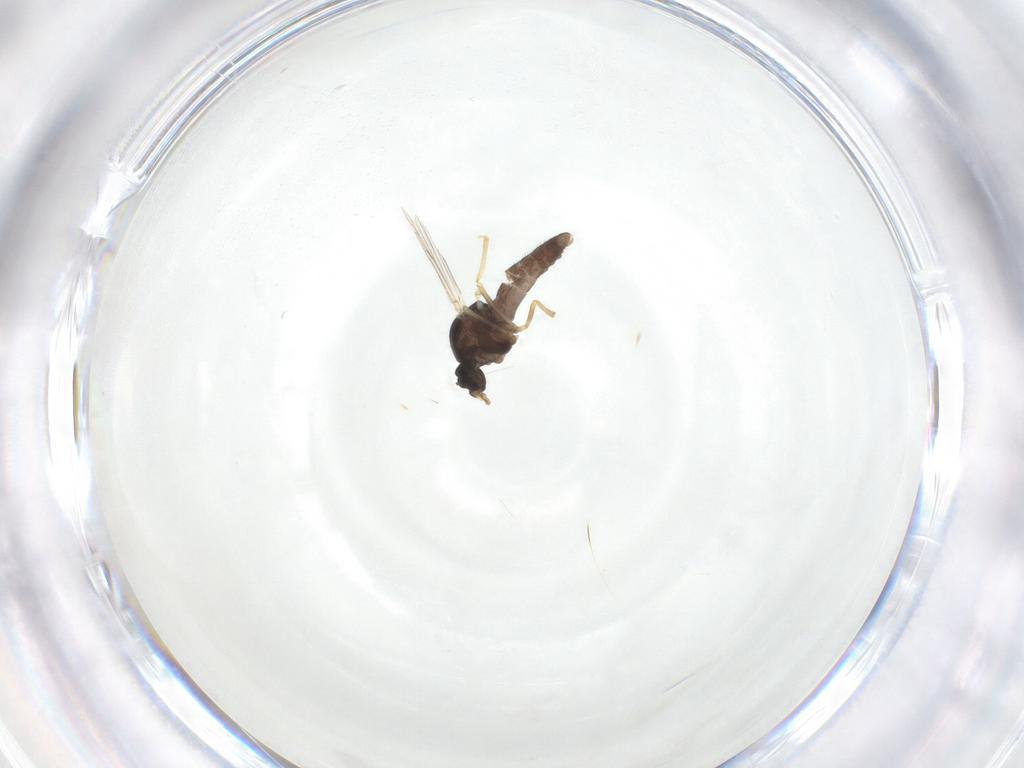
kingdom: Animalia
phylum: Arthropoda
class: Insecta
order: Diptera
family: Ceratopogonidae
